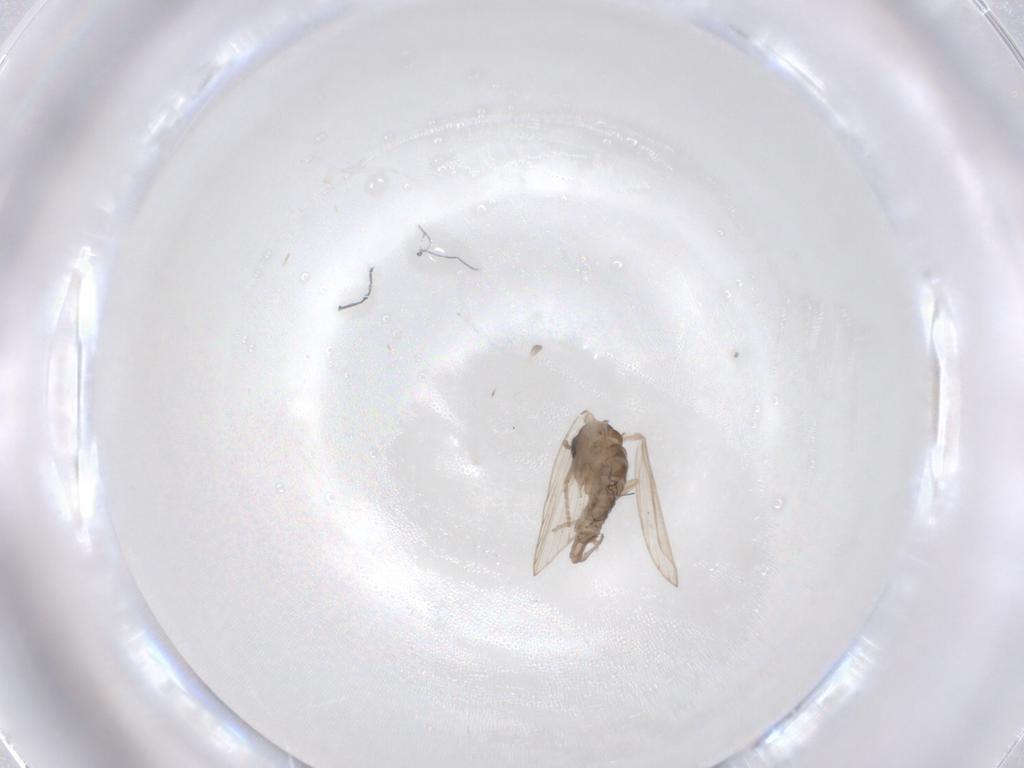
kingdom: Animalia
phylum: Arthropoda
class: Insecta
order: Diptera
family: Psychodidae
